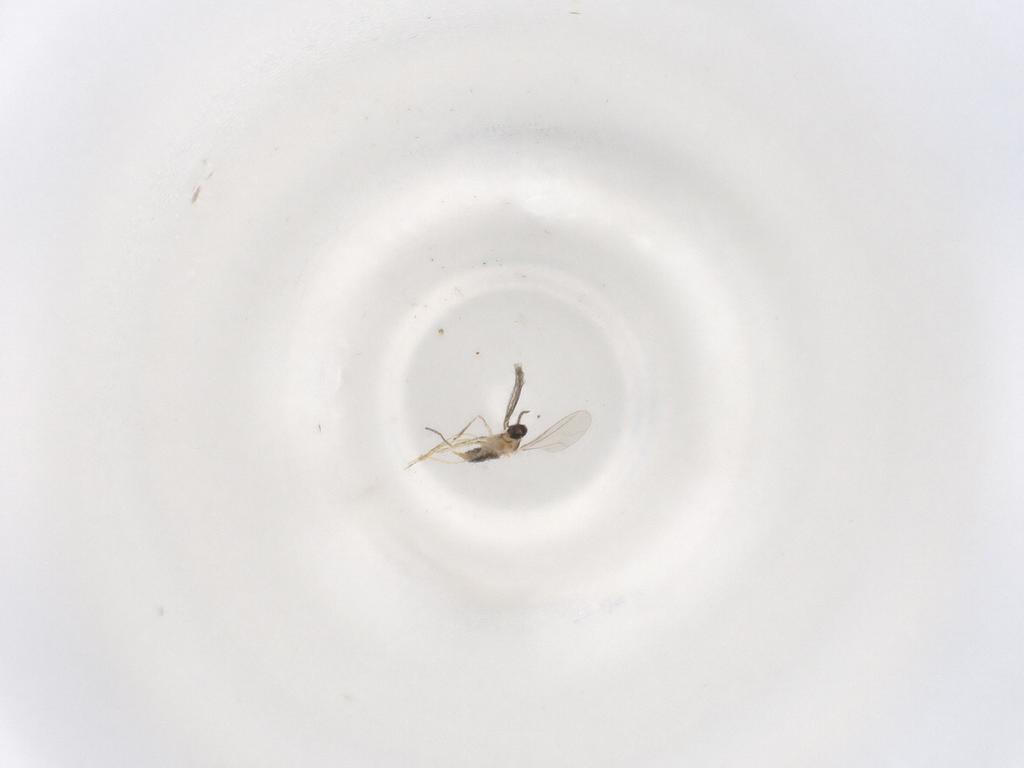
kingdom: Animalia
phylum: Arthropoda
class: Insecta
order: Diptera
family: Cecidomyiidae
